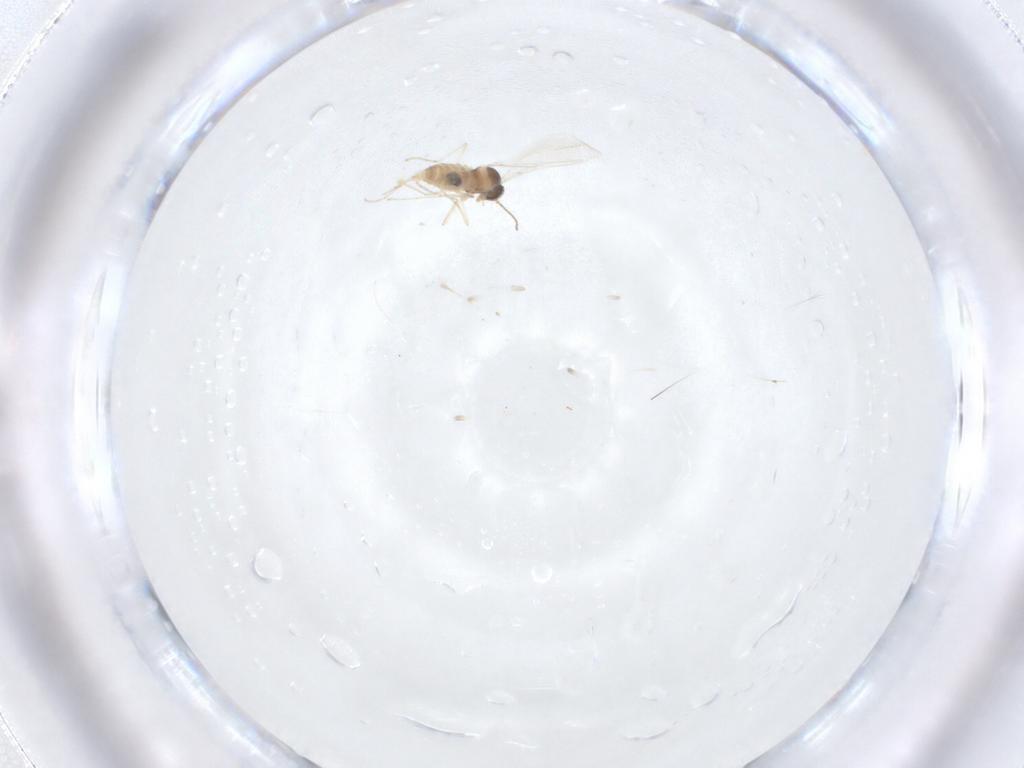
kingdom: Animalia
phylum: Arthropoda
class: Insecta
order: Diptera
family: Cecidomyiidae
